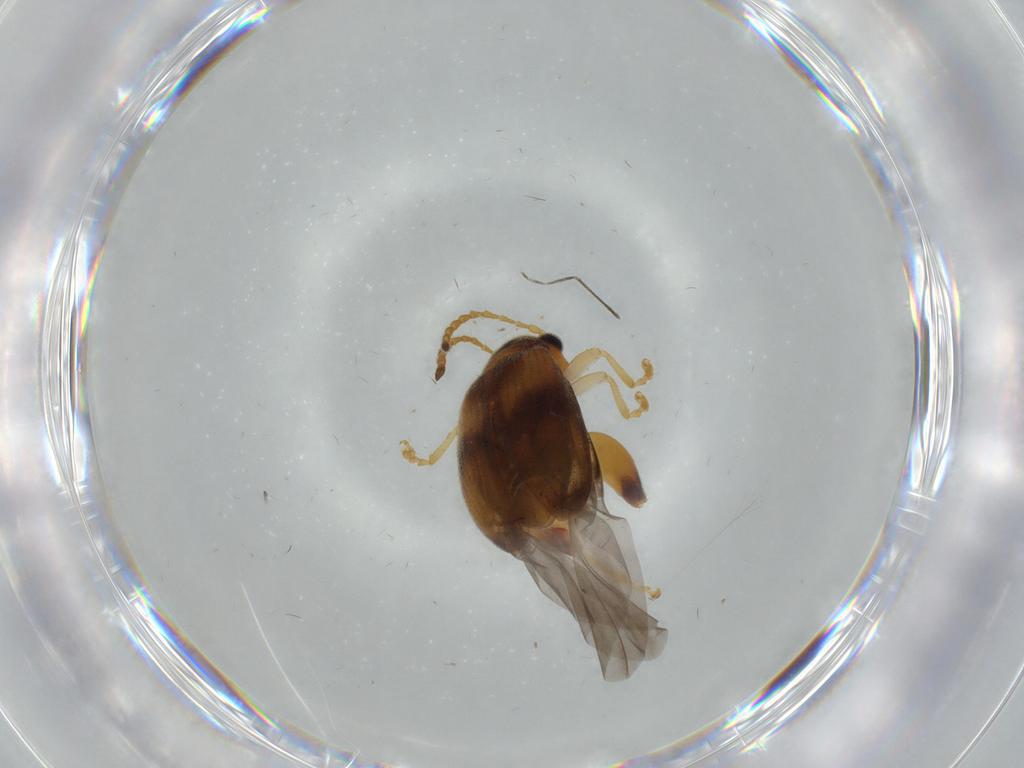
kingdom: Animalia
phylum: Arthropoda
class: Insecta
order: Coleoptera
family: Chrysomelidae
